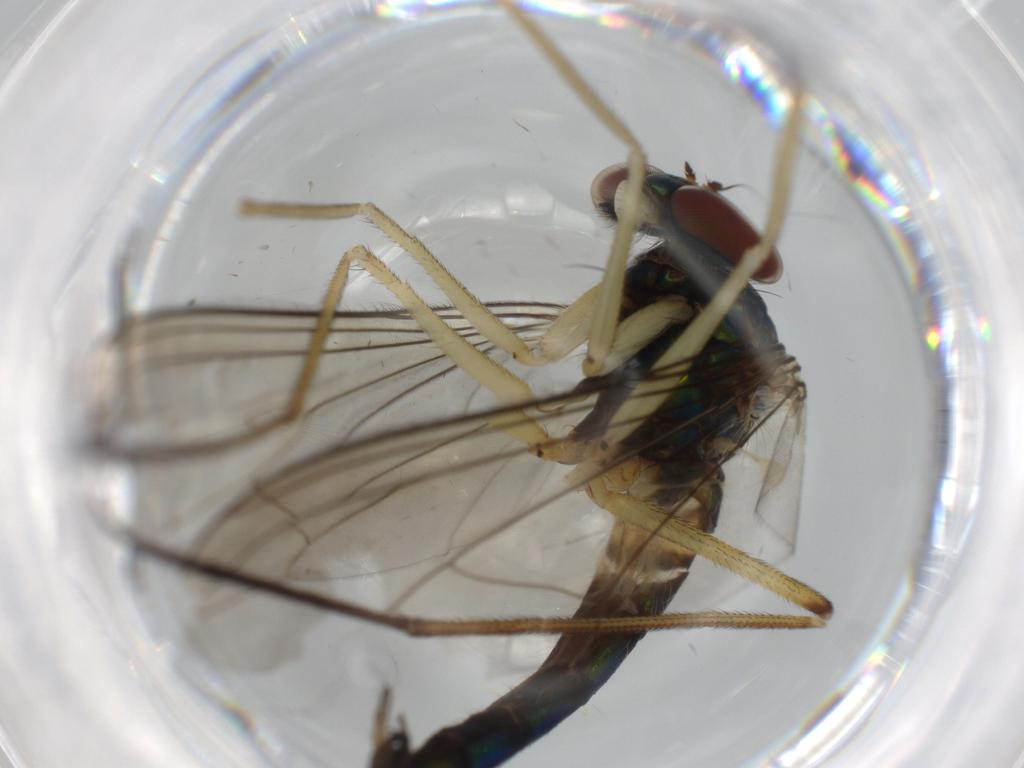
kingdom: Animalia
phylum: Arthropoda
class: Insecta
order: Diptera
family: Dolichopodidae
